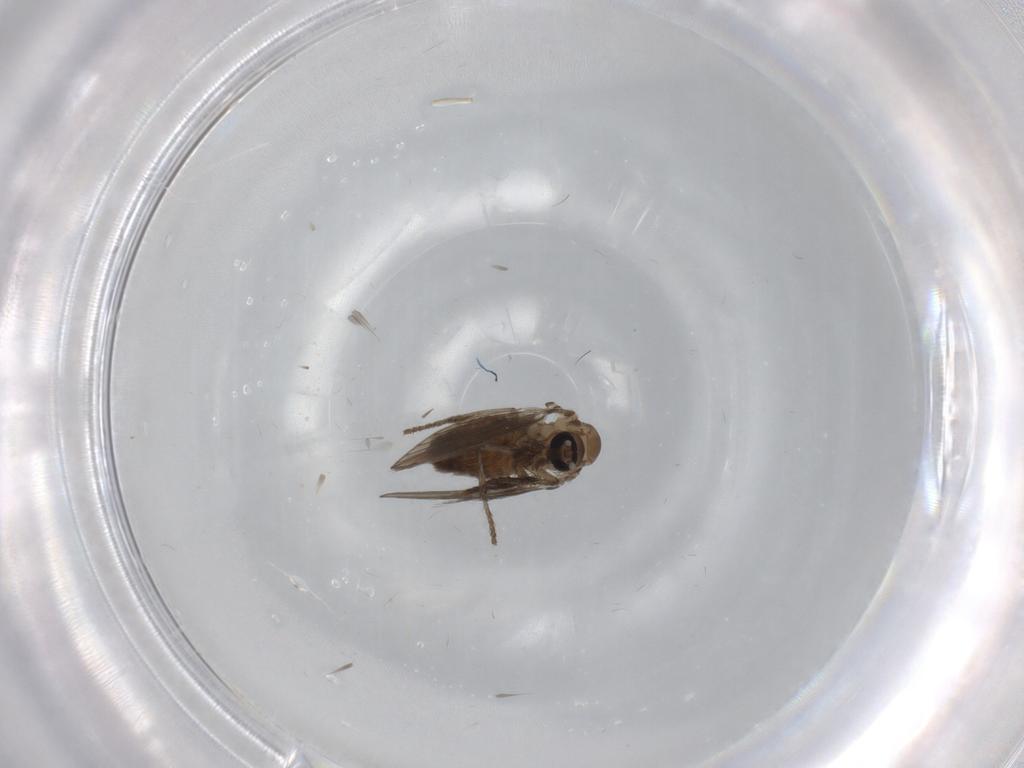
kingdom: Animalia
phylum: Arthropoda
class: Insecta
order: Diptera
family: Psychodidae
